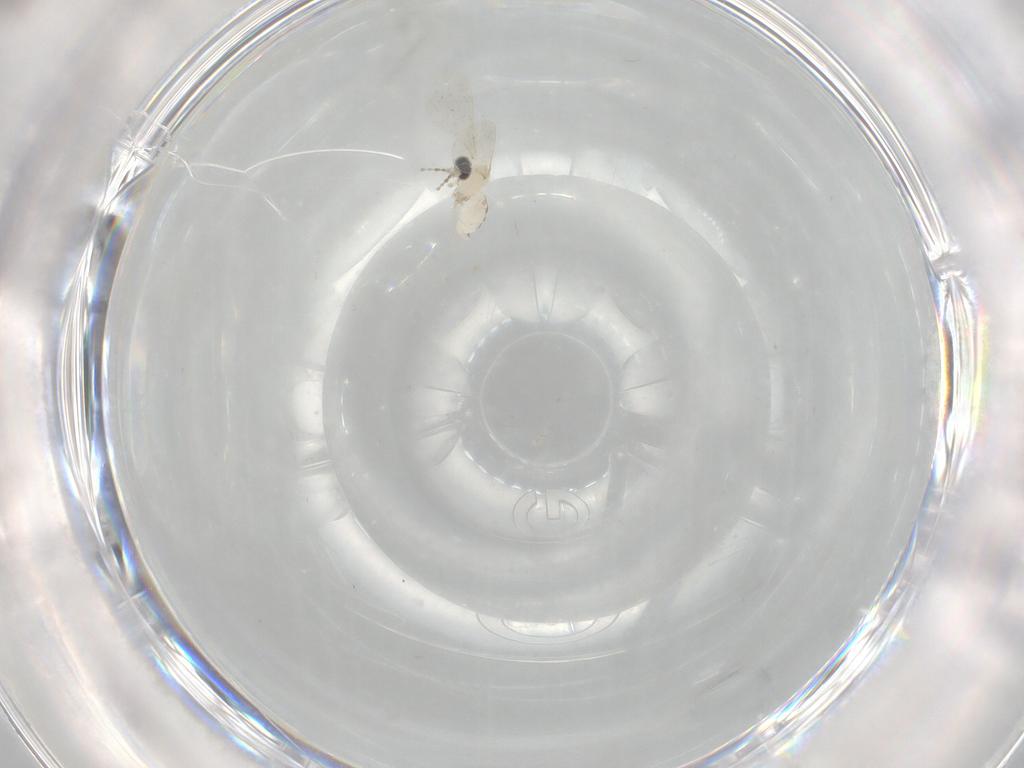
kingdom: Animalia
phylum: Arthropoda
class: Insecta
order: Diptera
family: Cecidomyiidae
